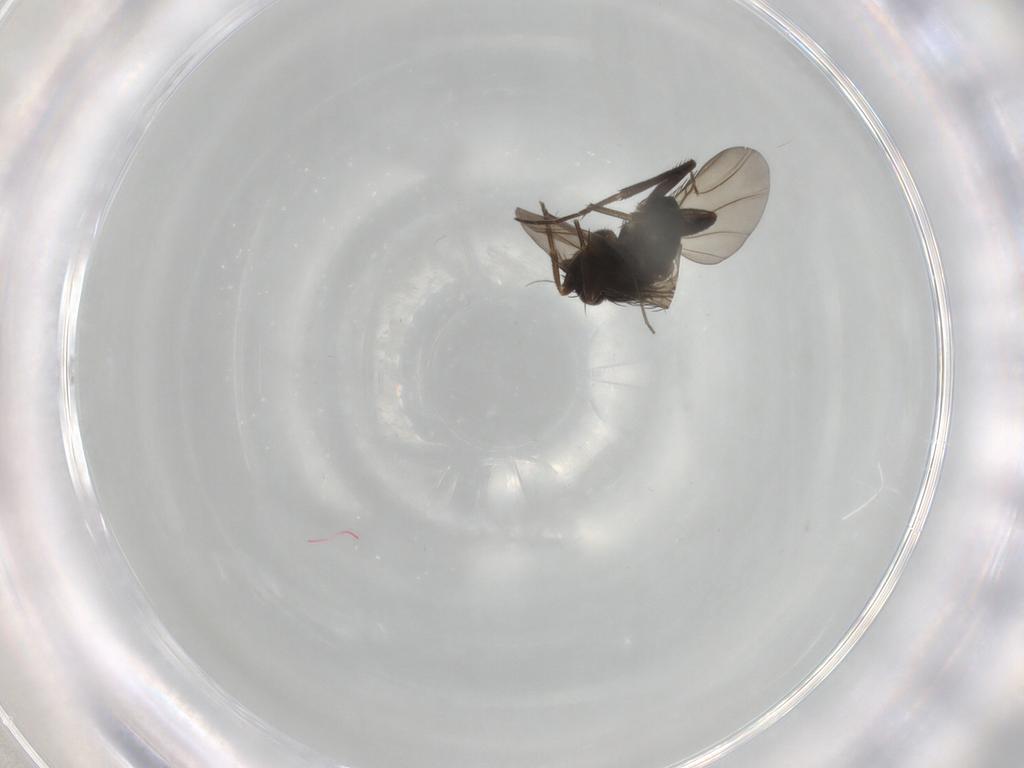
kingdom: Animalia
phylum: Arthropoda
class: Insecta
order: Diptera
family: Phoridae
